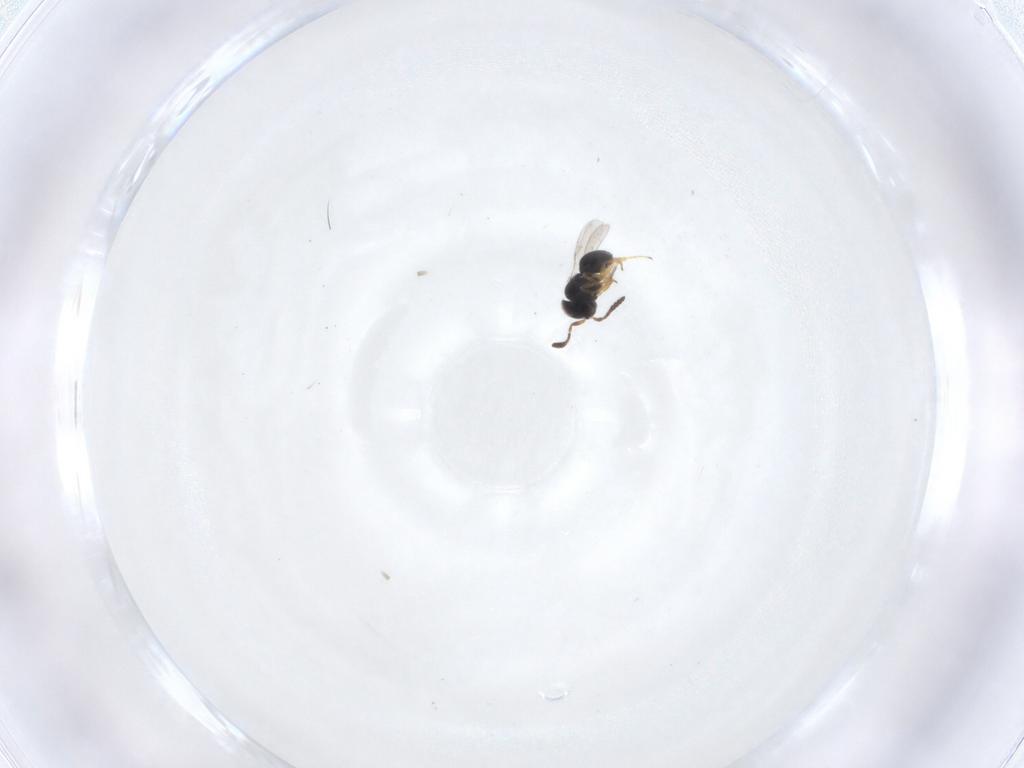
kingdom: Animalia
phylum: Arthropoda
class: Insecta
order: Hymenoptera
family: Scelionidae
